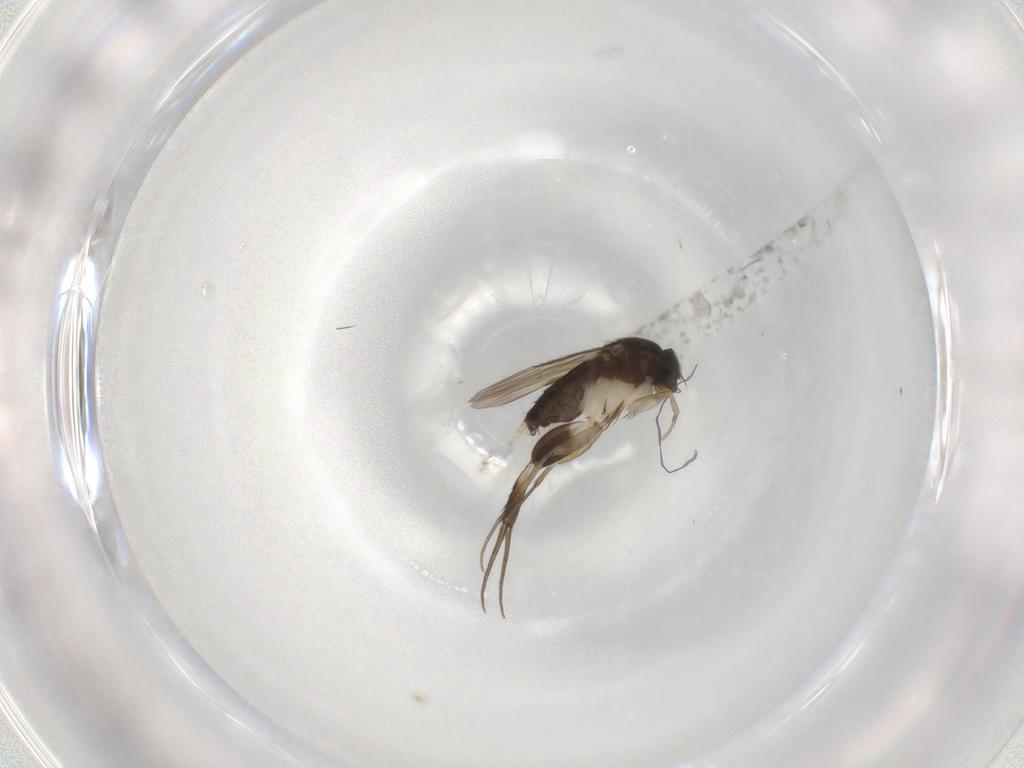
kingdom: Animalia
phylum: Arthropoda
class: Insecta
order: Diptera
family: Phoridae
